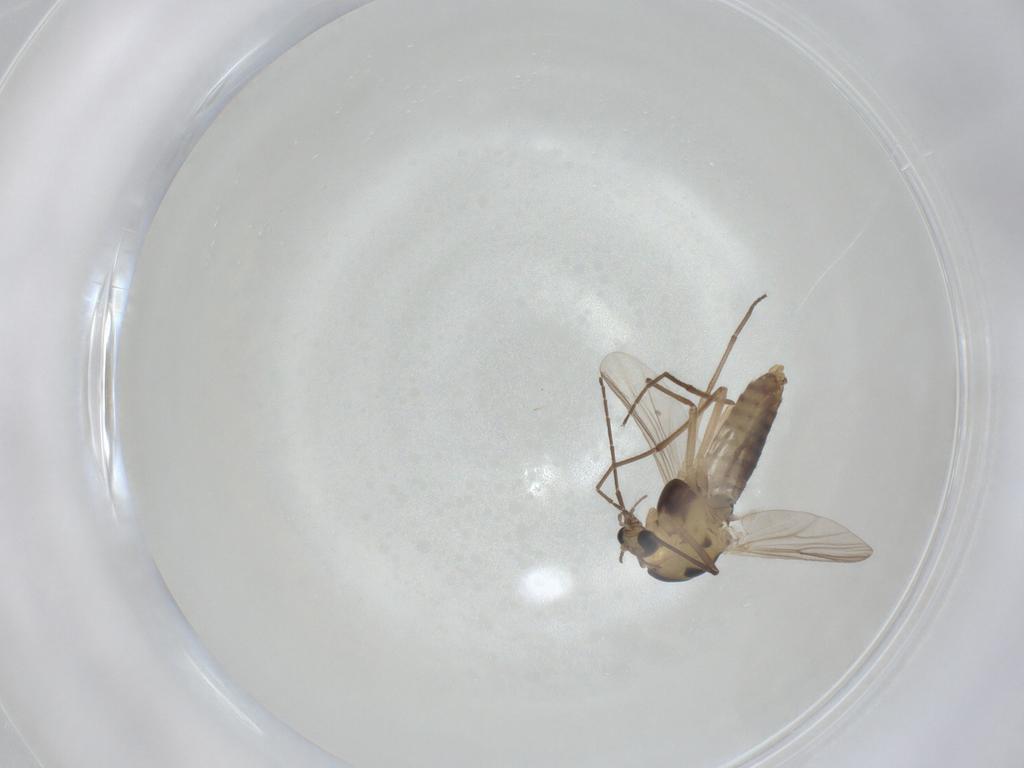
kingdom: Animalia
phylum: Arthropoda
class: Insecta
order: Diptera
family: Chironomidae
